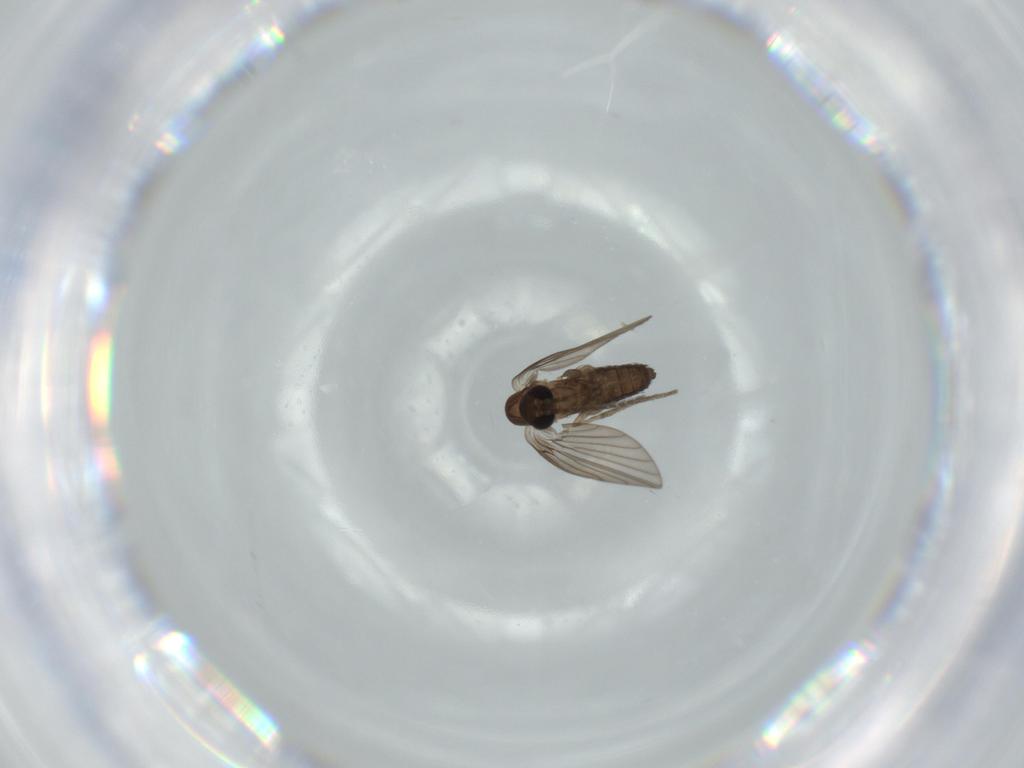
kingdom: Animalia
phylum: Arthropoda
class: Insecta
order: Diptera
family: Psychodidae
